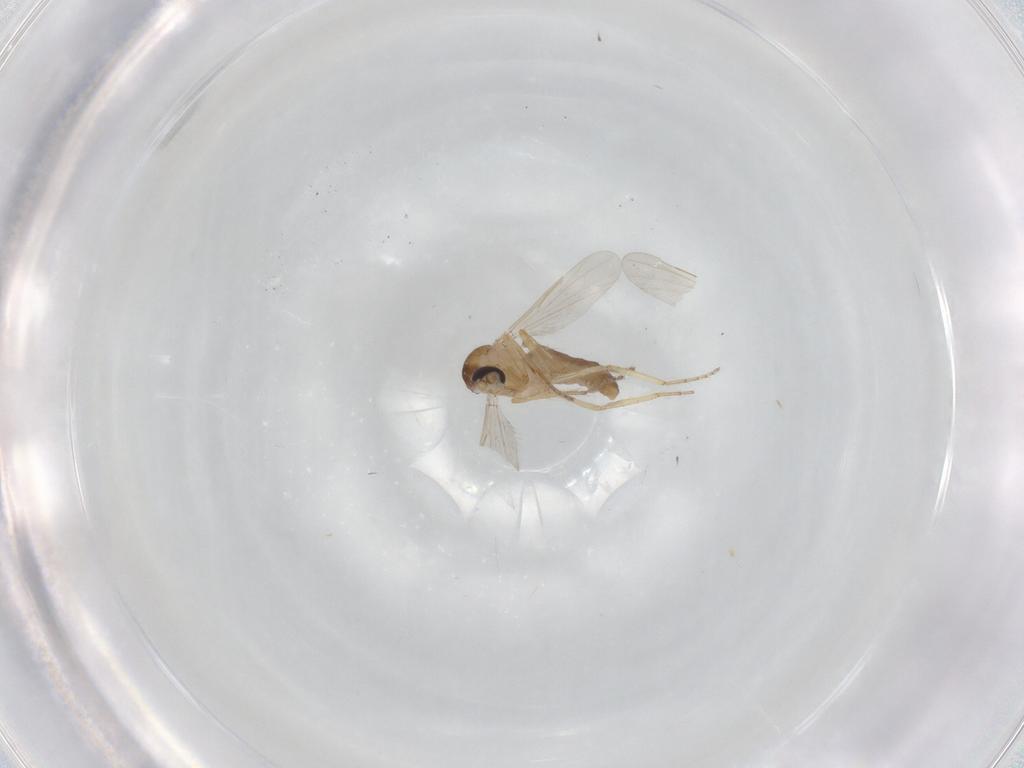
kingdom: Animalia
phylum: Arthropoda
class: Insecta
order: Diptera
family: Ceratopogonidae
